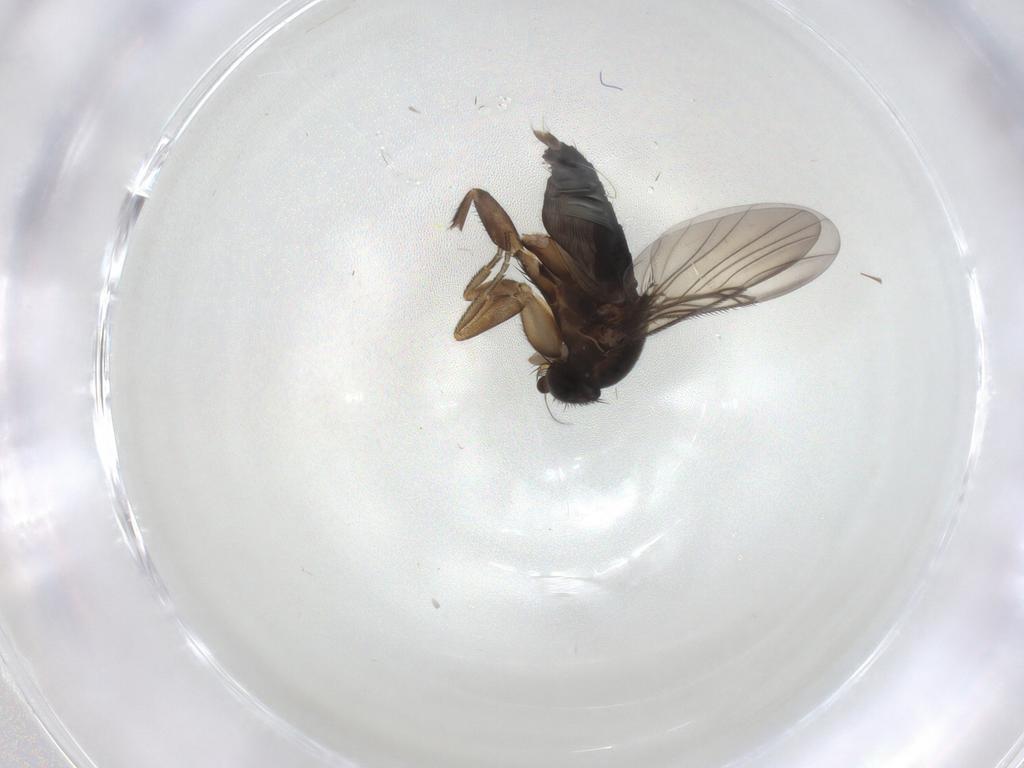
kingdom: Animalia
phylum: Arthropoda
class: Insecta
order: Diptera
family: Phoridae
